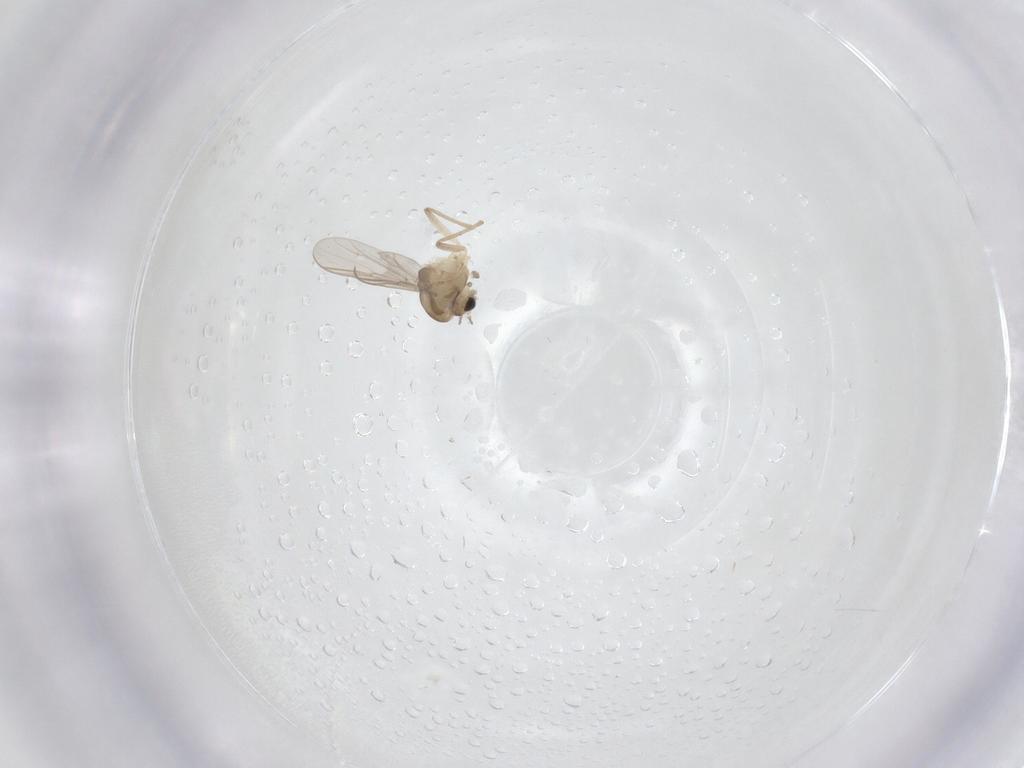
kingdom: Animalia
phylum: Arthropoda
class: Insecta
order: Diptera
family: Chironomidae
